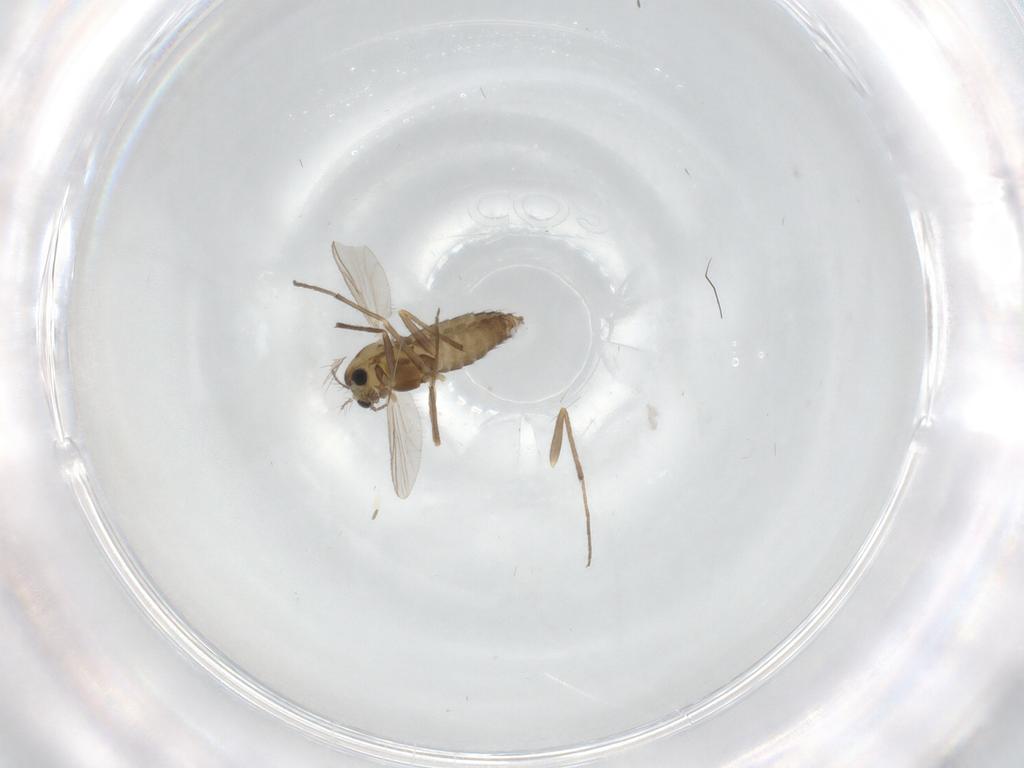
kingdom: Animalia
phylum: Arthropoda
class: Insecta
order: Diptera
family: Chironomidae
